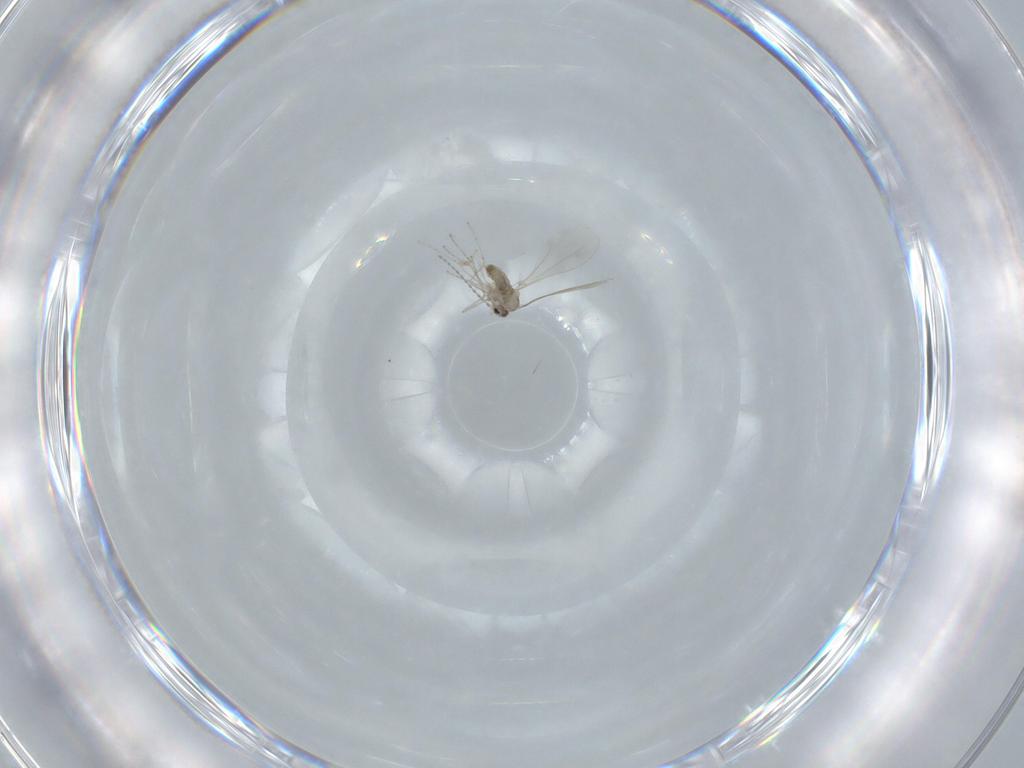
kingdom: Animalia
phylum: Arthropoda
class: Insecta
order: Diptera
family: Cecidomyiidae
